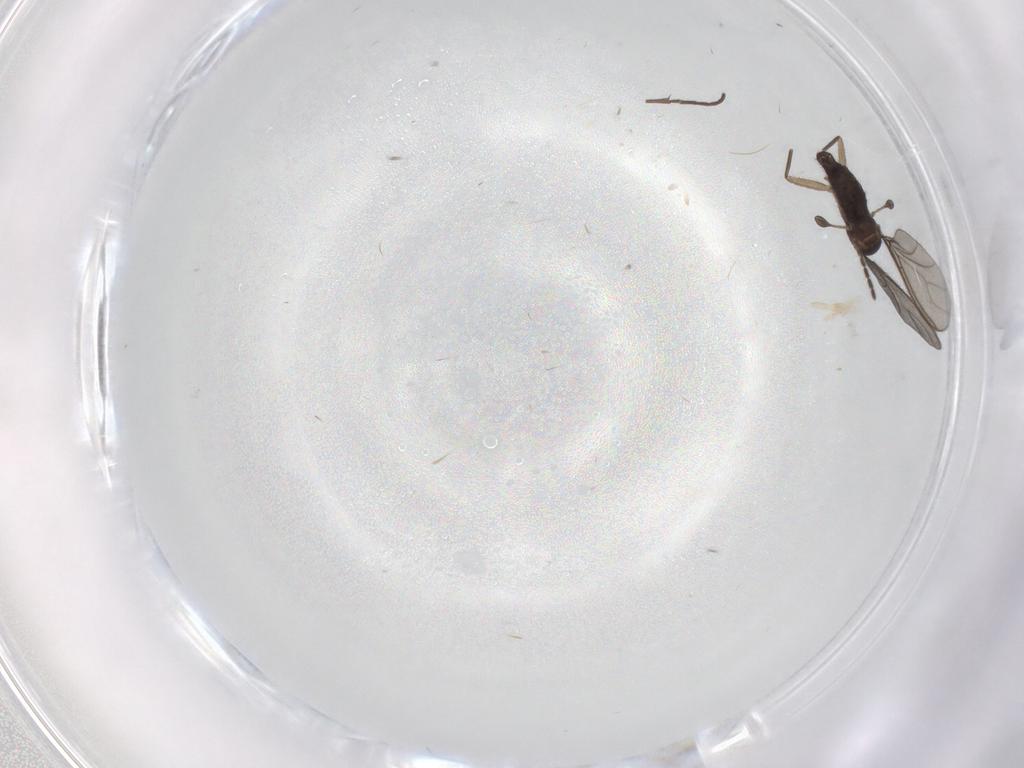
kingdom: Animalia
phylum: Arthropoda
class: Insecta
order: Diptera
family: Sciaridae
